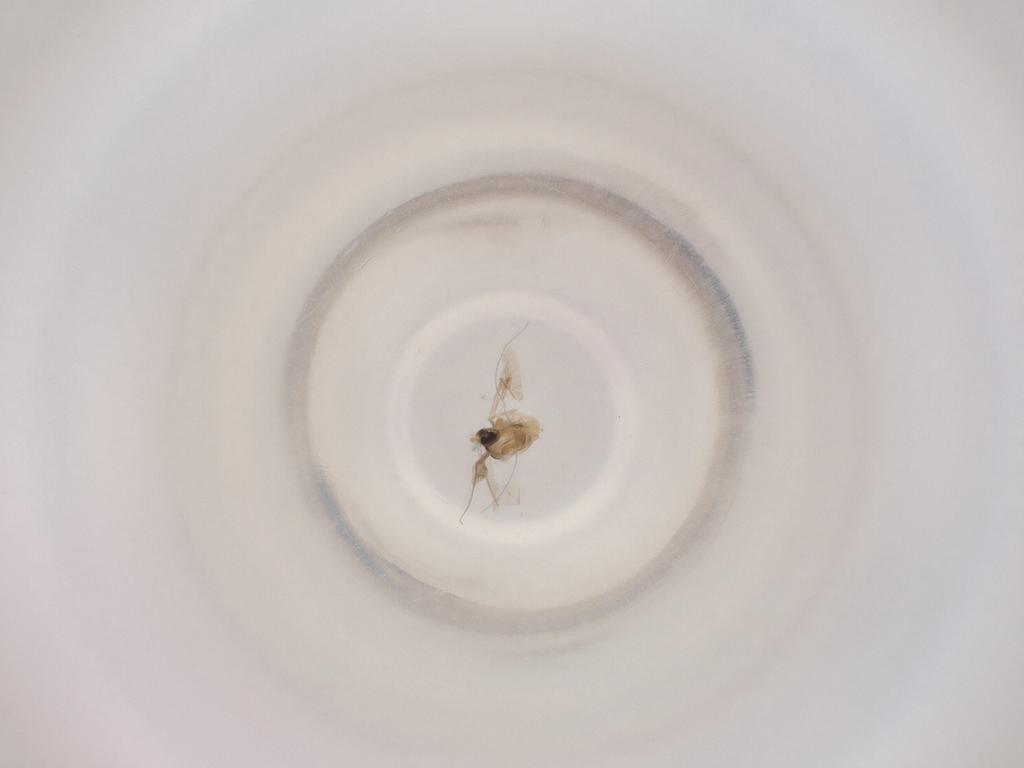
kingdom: Animalia
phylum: Arthropoda
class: Insecta
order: Diptera
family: Cecidomyiidae
